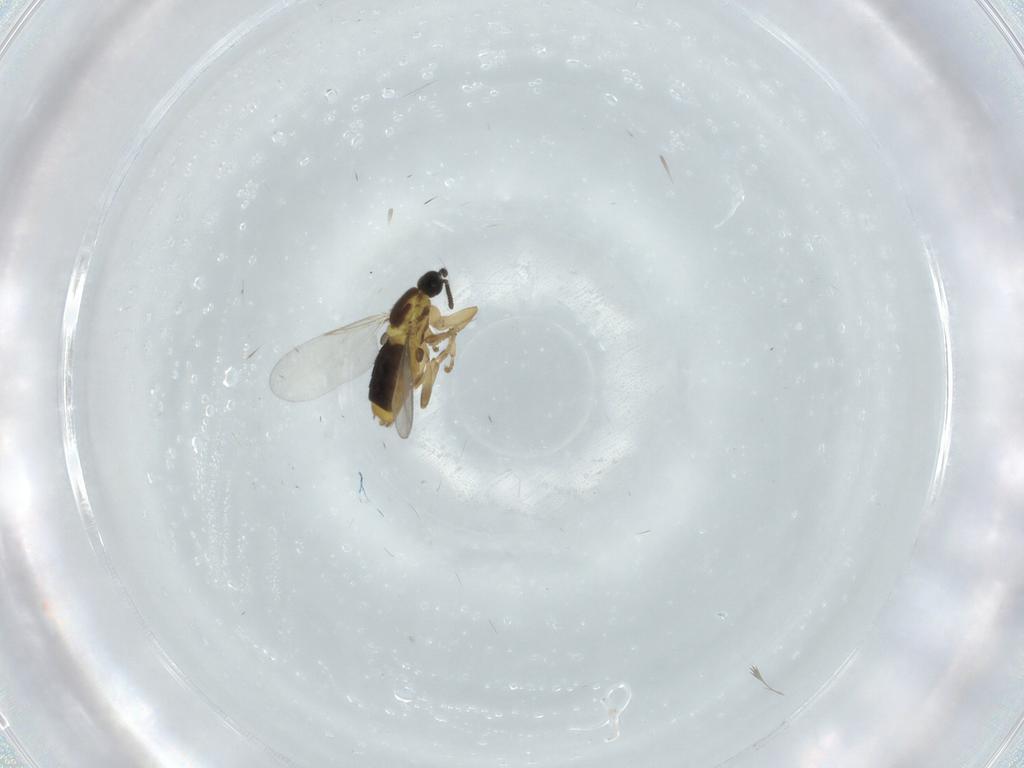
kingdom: Animalia
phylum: Arthropoda
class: Insecta
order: Diptera
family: Scatopsidae
